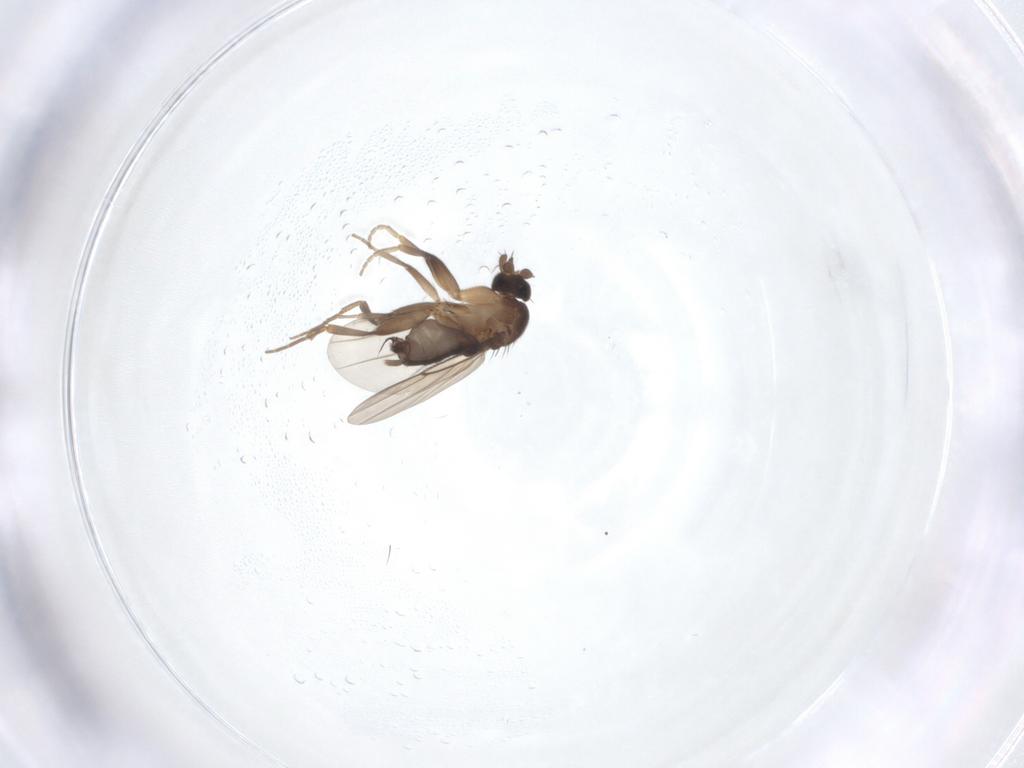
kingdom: Animalia
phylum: Arthropoda
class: Insecta
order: Diptera
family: Phoridae
